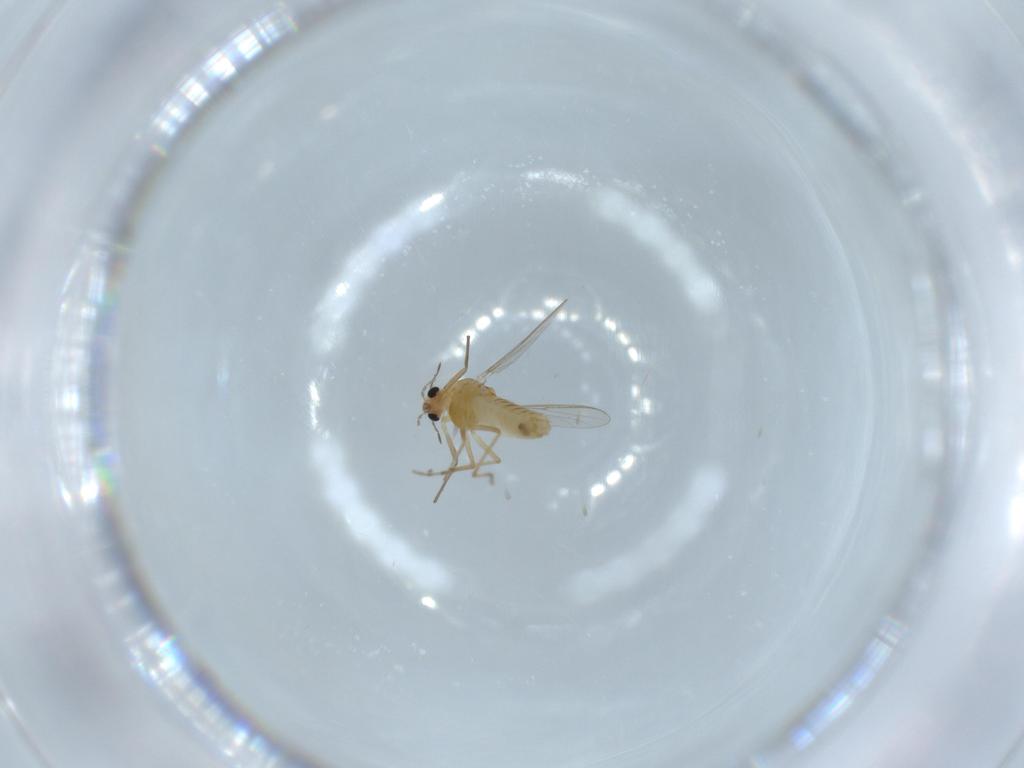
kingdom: Animalia
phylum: Arthropoda
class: Insecta
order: Diptera
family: Chironomidae
